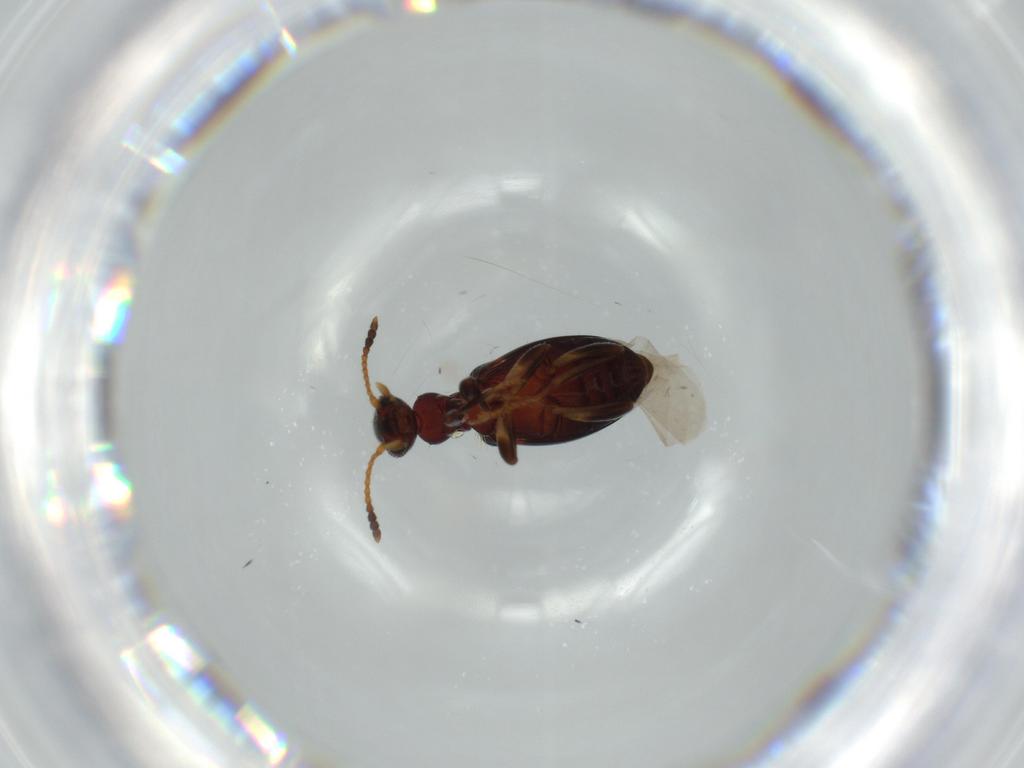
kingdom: Animalia
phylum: Arthropoda
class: Insecta
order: Coleoptera
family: Anthicidae
